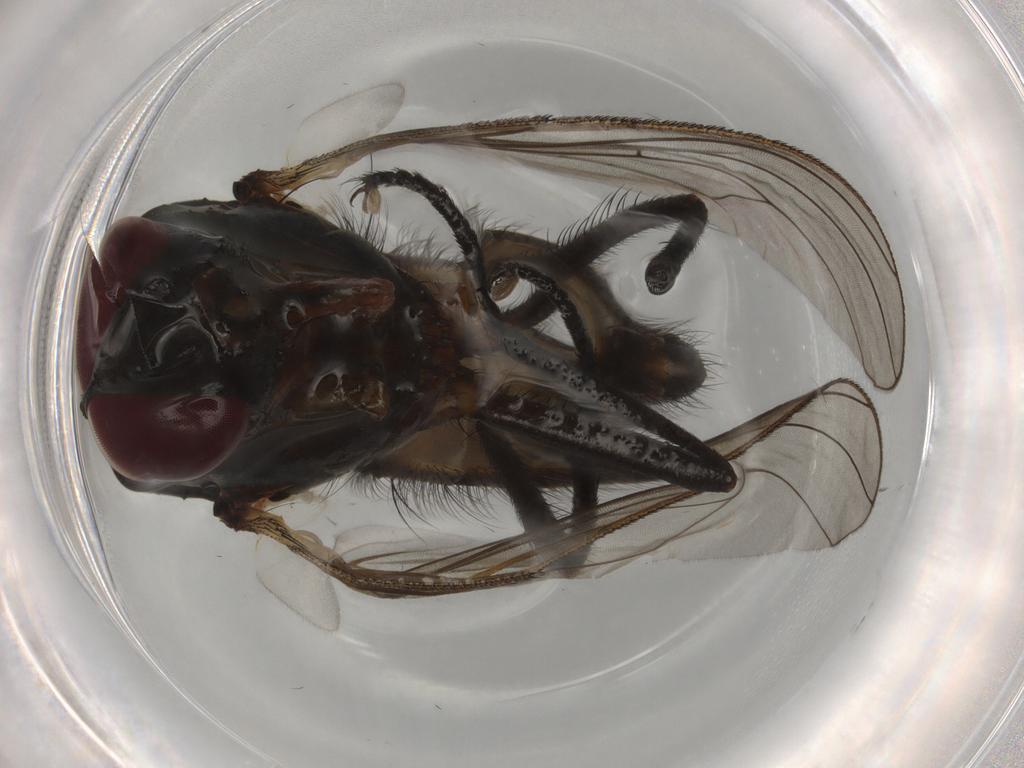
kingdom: Animalia
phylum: Arthropoda
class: Insecta
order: Diptera
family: Anthomyiidae
